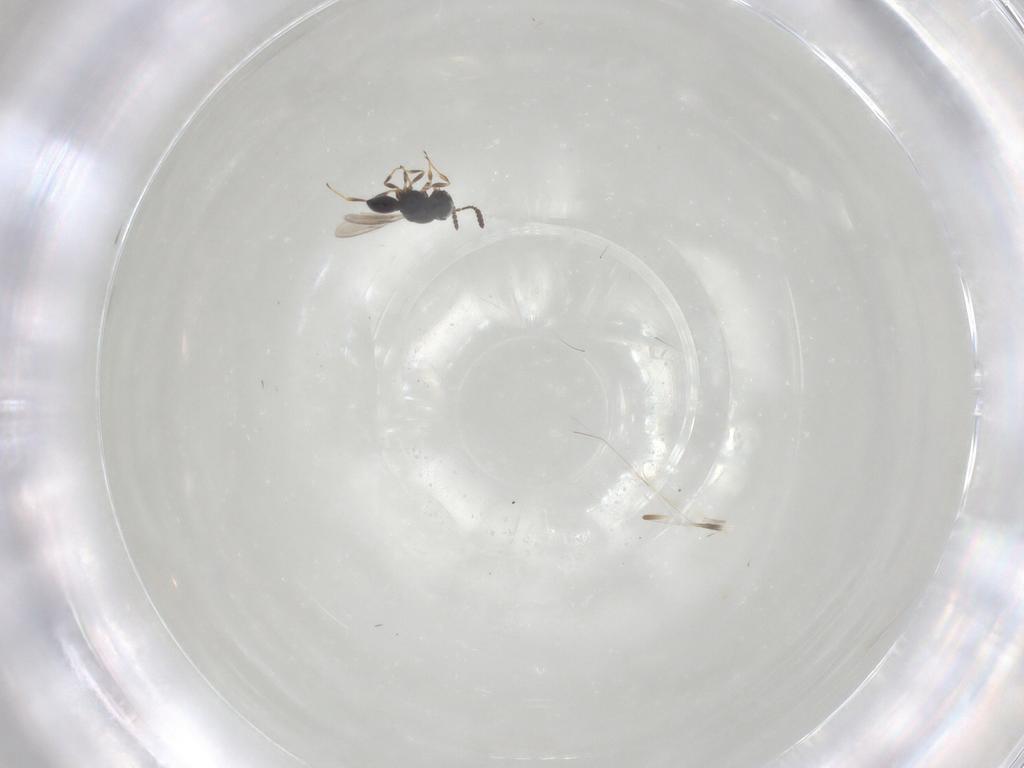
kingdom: Animalia
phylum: Arthropoda
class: Insecta
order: Hymenoptera
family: Scelionidae
